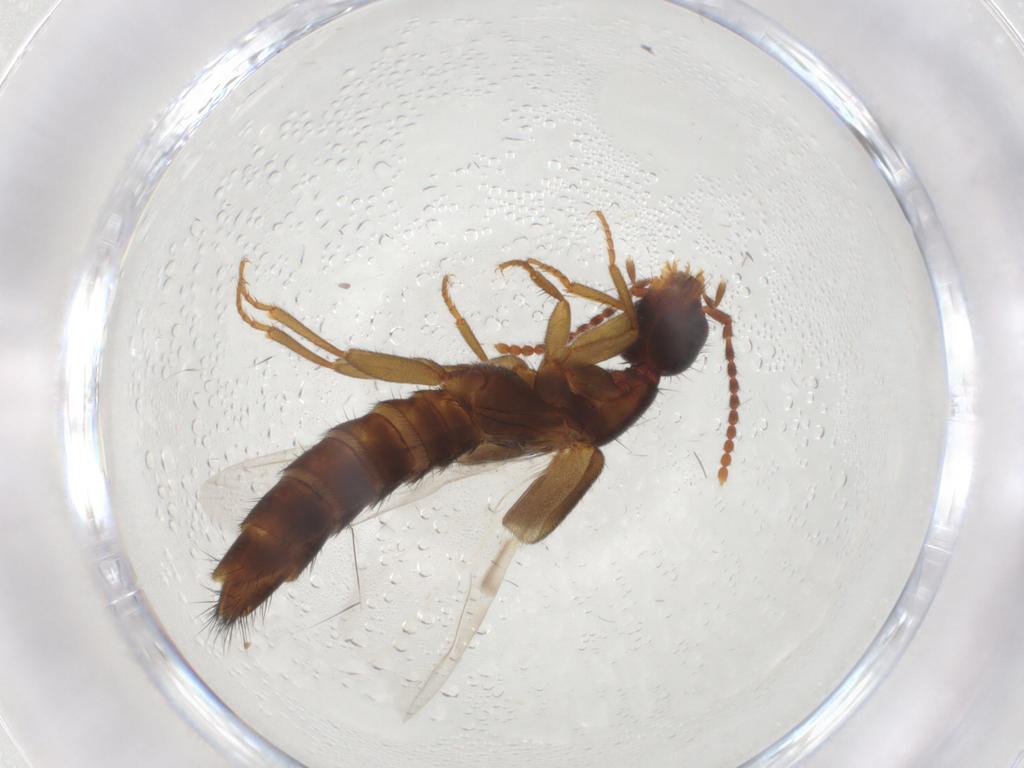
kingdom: Animalia
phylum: Arthropoda
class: Insecta
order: Coleoptera
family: Staphylinidae
